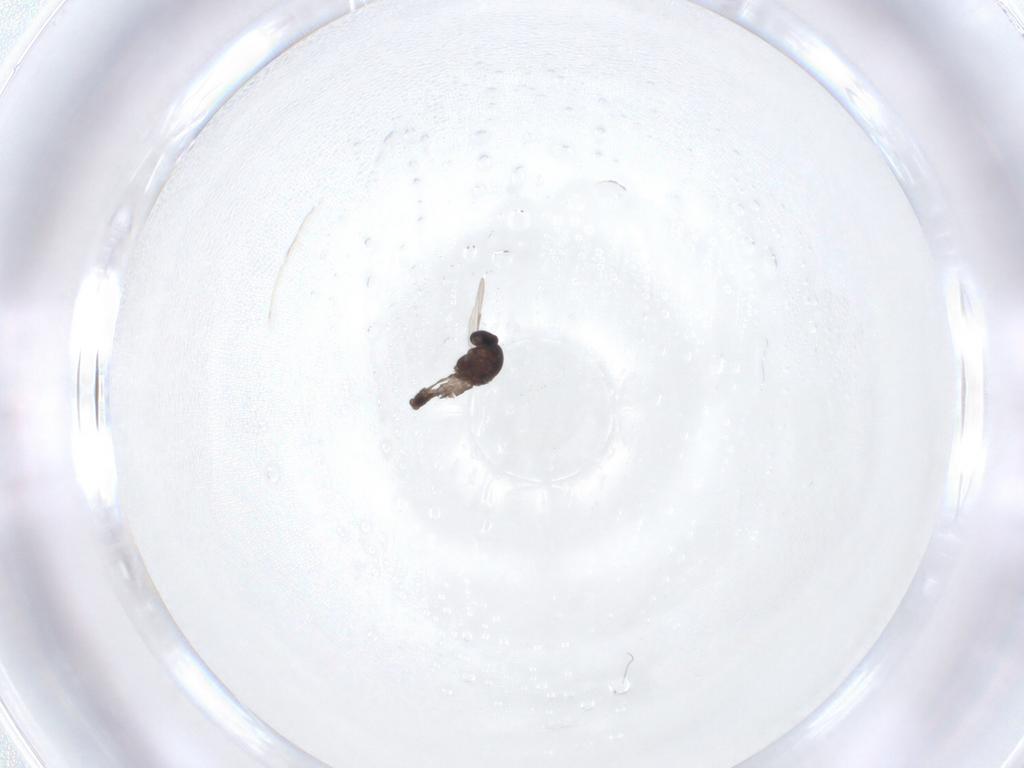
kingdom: Animalia
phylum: Arthropoda
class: Insecta
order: Diptera
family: Ceratopogonidae
